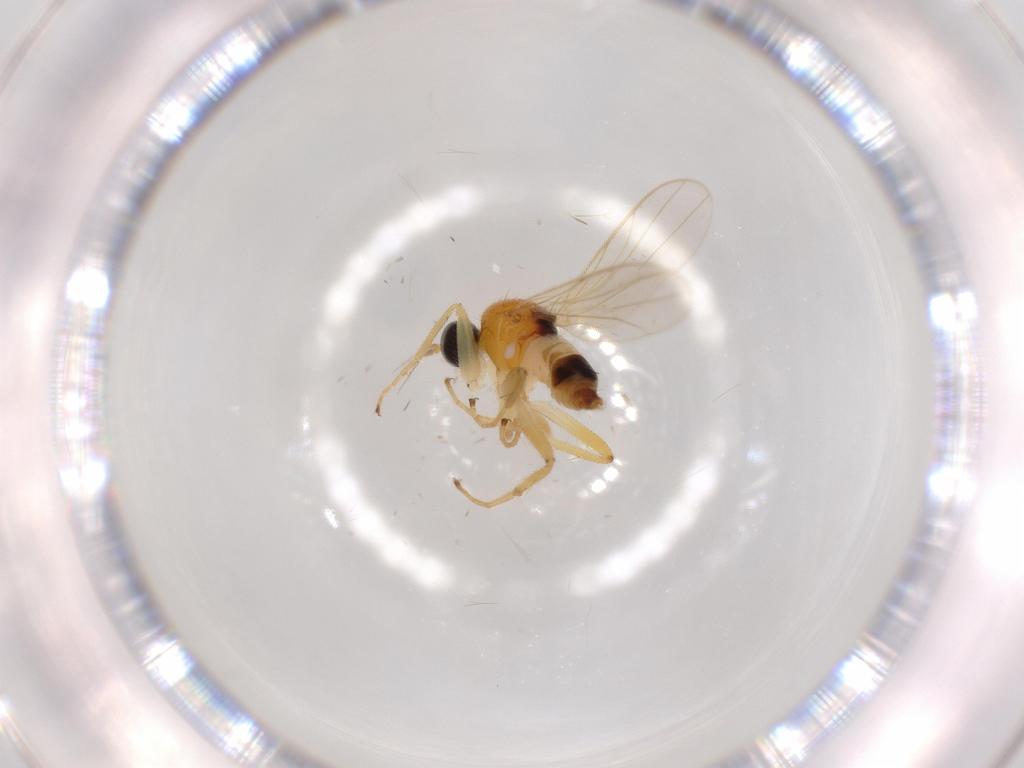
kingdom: Animalia
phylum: Arthropoda
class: Insecta
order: Diptera
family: Hybotidae
